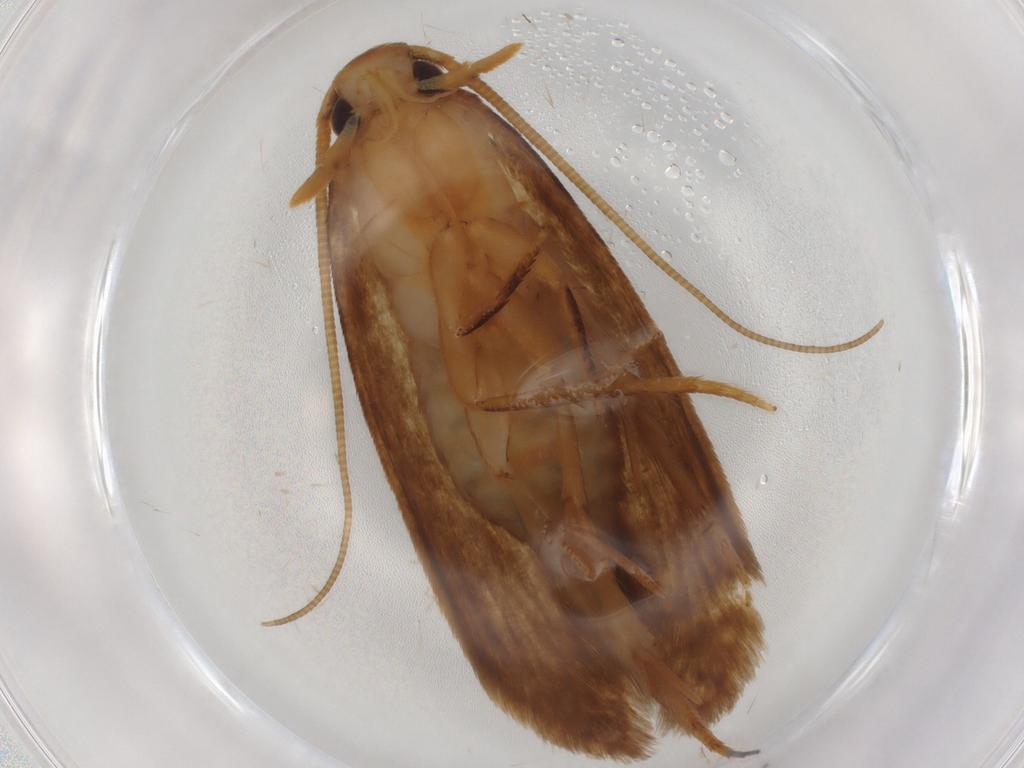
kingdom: Animalia
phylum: Arthropoda
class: Insecta
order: Lepidoptera
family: Tineidae
